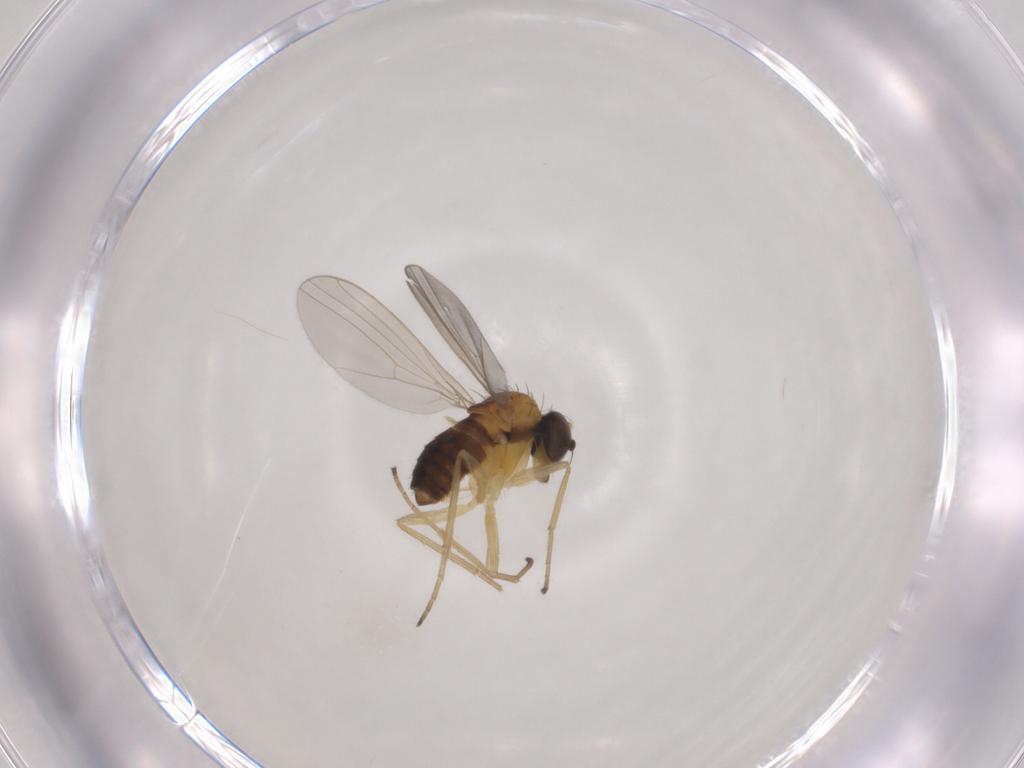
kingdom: Animalia
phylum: Arthropoda
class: Insecta
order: Diptera
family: Dolichopodidae
